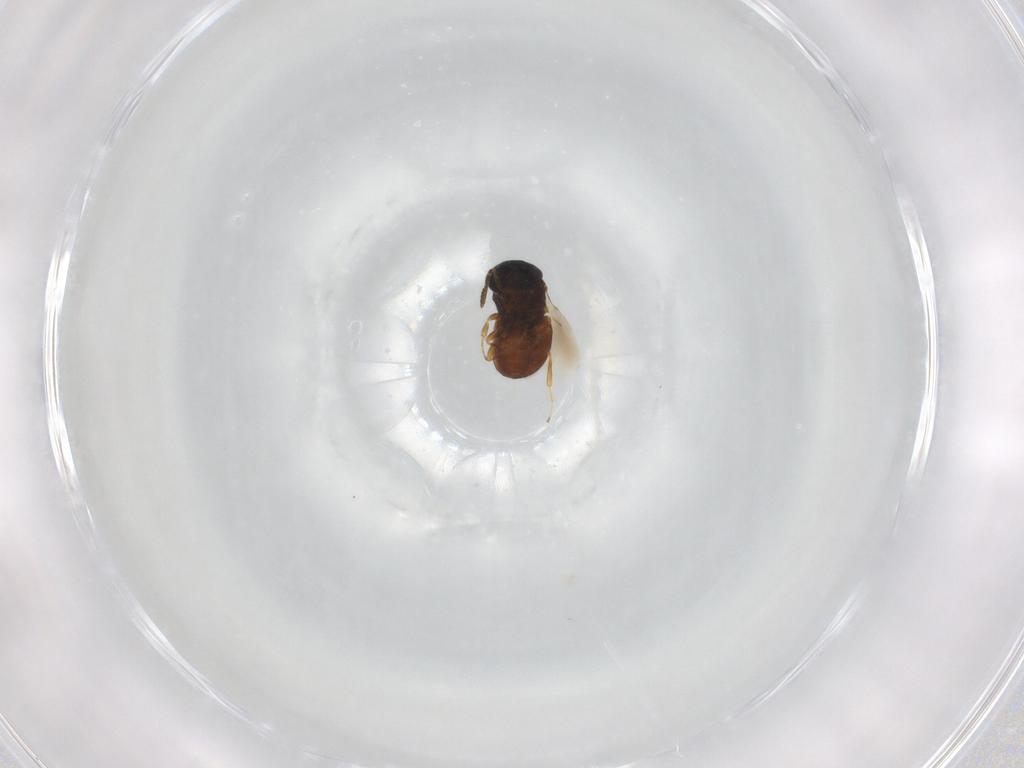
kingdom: Animalia
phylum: Arthropoda
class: Insecta
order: Hymenoptera
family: Scelionidae
